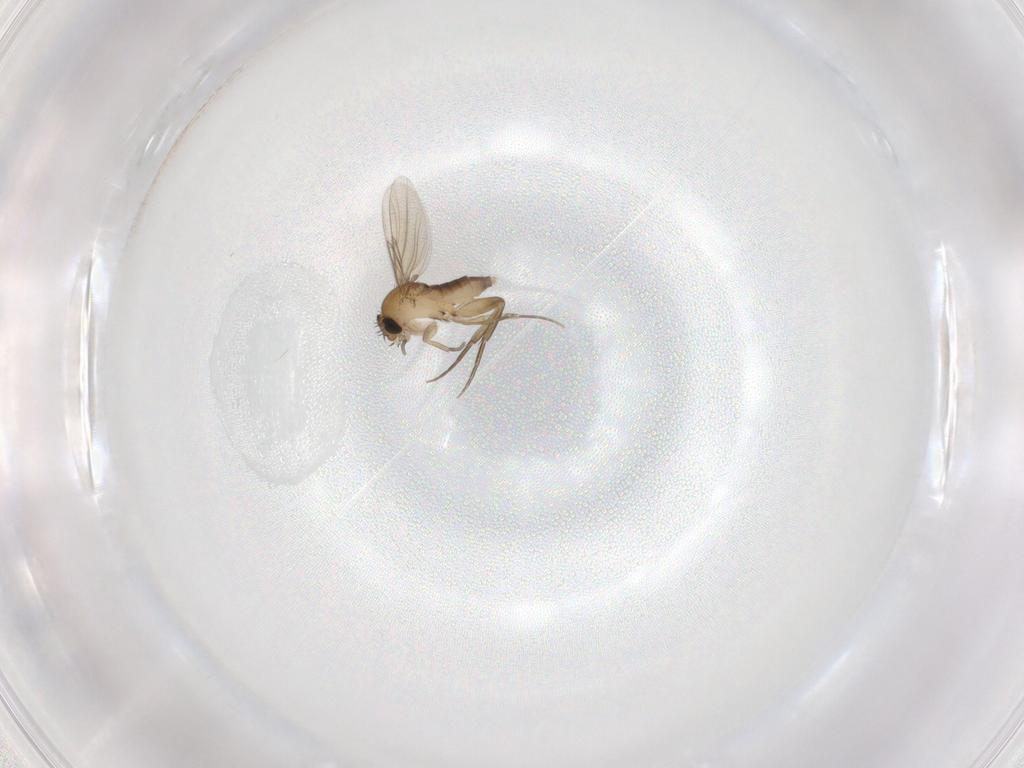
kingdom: Animalia
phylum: Arthropoda
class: Insecta
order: Diptera
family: Phoridae
